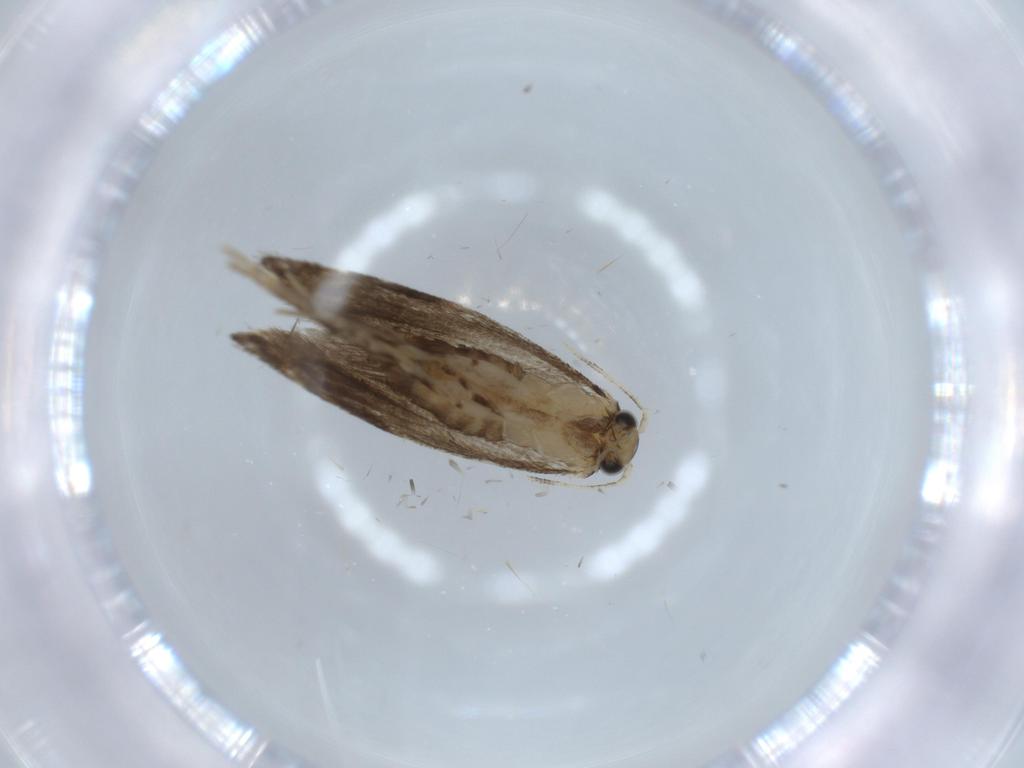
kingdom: Animalia
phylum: Arthropoda
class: Insecta
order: Lepidoptera
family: Tineidae
